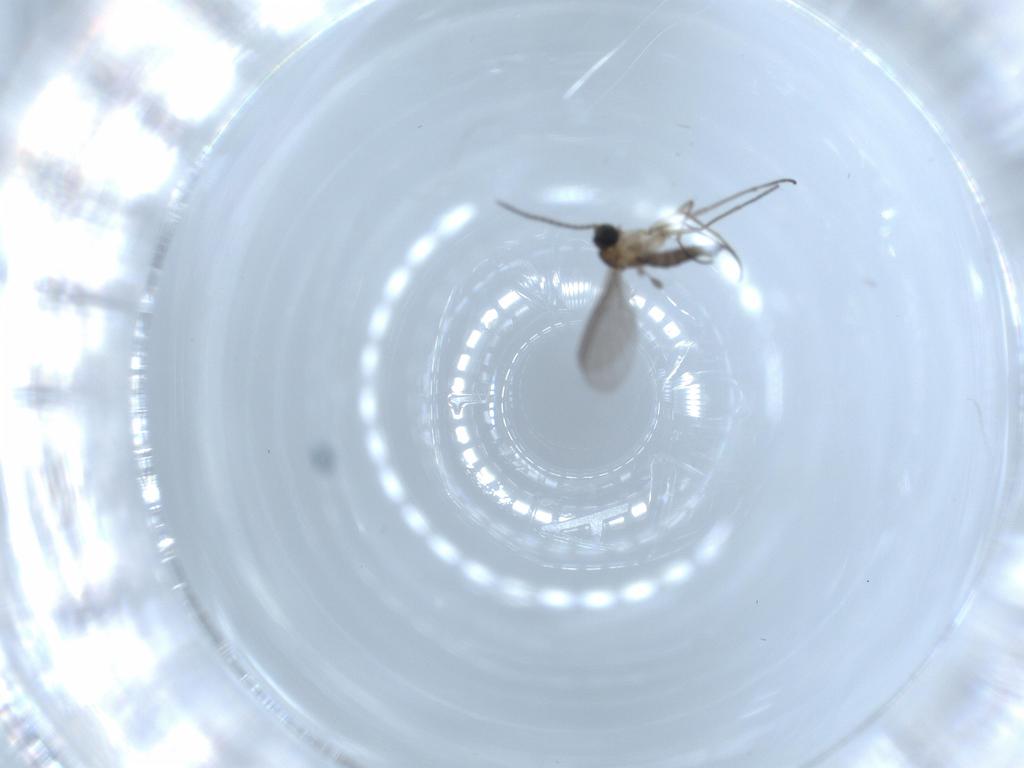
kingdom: Animalia
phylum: Arthropoda
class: Insecta
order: Diptera
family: Sciaridae
